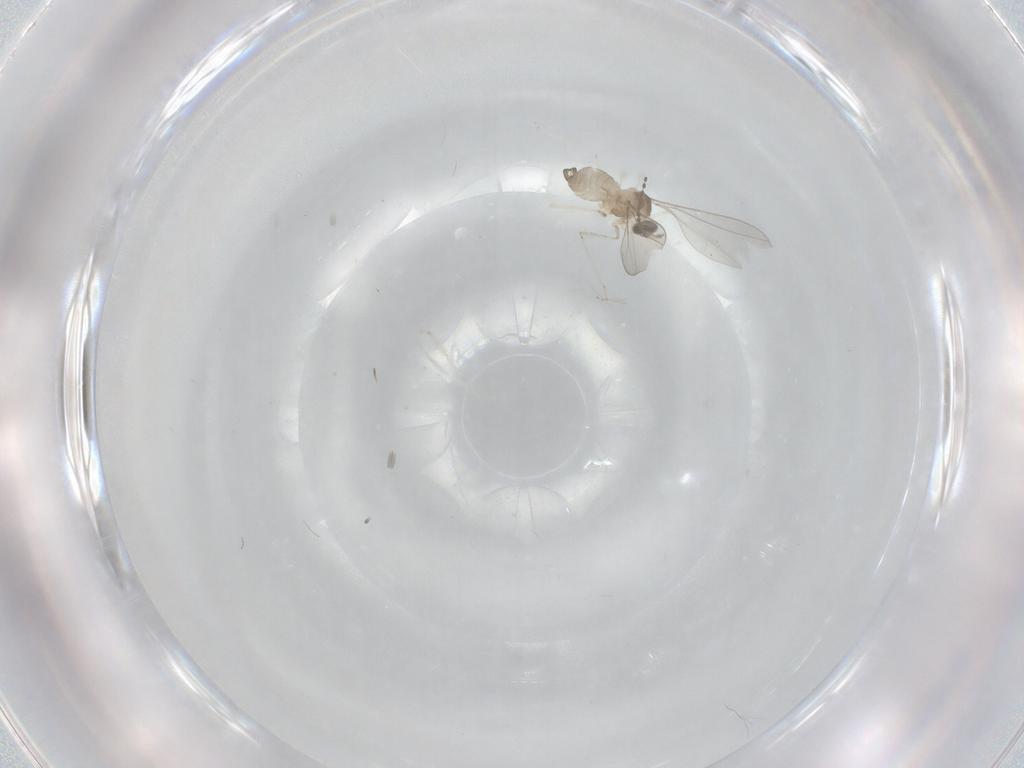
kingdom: Animalia
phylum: Arthropoda
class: Insecta
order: Diptera
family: Cecidomyiidae
